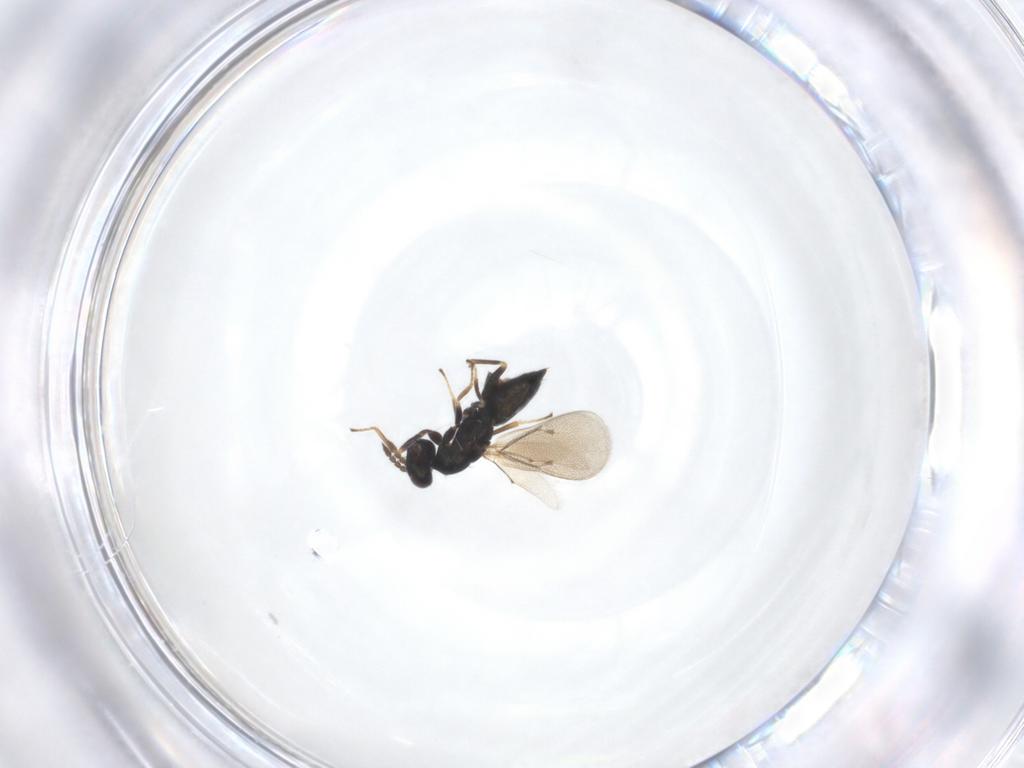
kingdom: Animalia
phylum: Arthropoda
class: Insecta
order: Hymenoptera
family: Eulophidae
